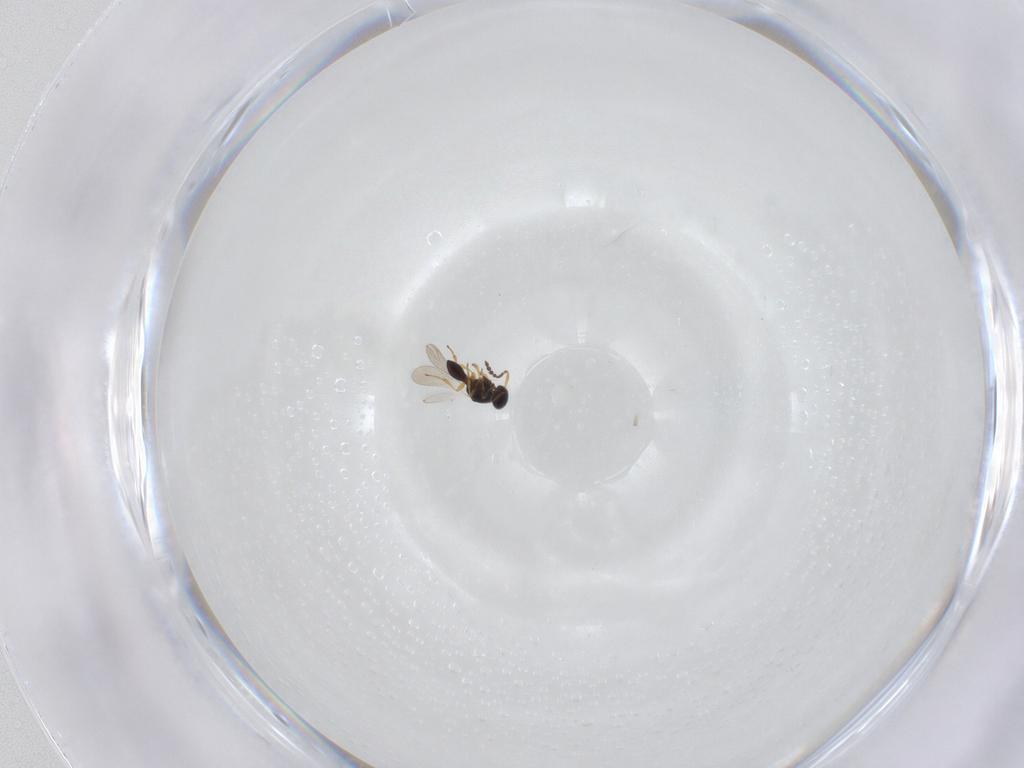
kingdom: Animalia
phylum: Arthropoda
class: Insecta
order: Hymenoptera
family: Platygastridae
